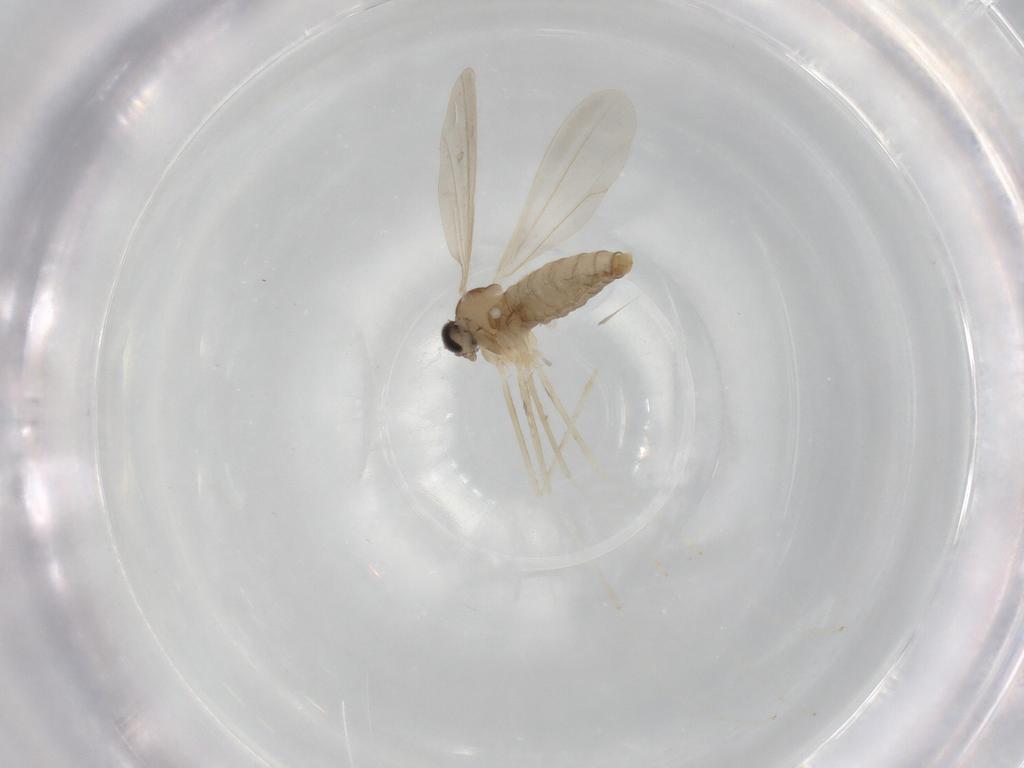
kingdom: Animalia
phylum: Arthropoda
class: Insecta
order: Diptera
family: Cecidomyiidae
